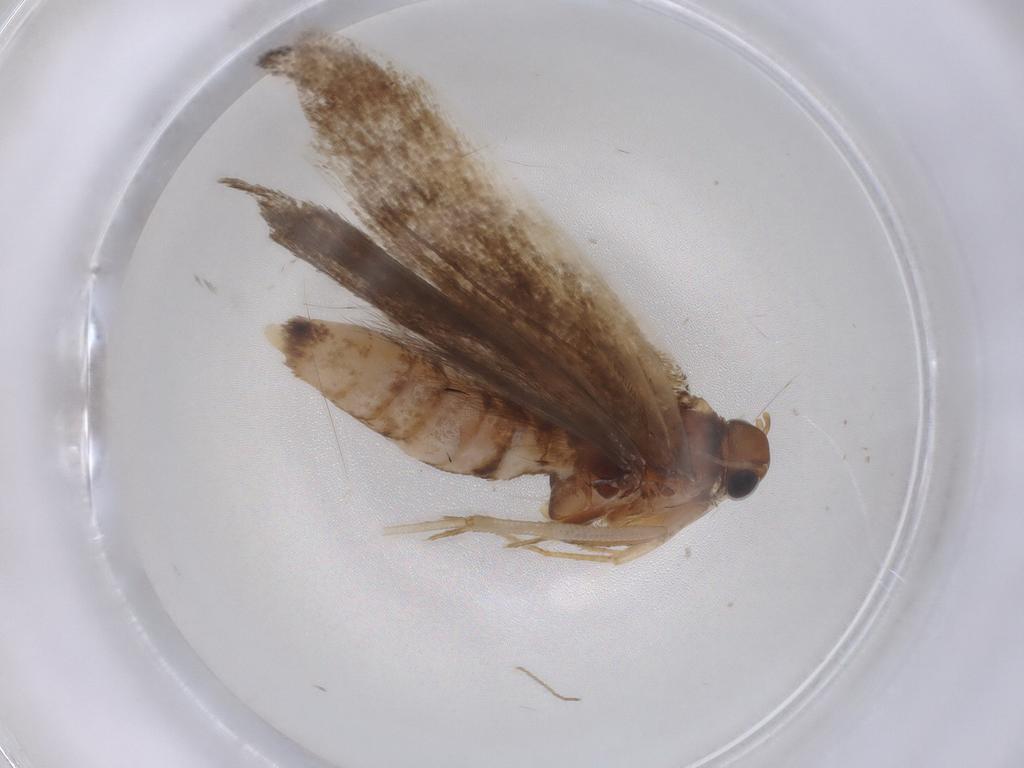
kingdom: Animalia
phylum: Arthropoda
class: Insecta
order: Lepidoptera
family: Gelechiidae
